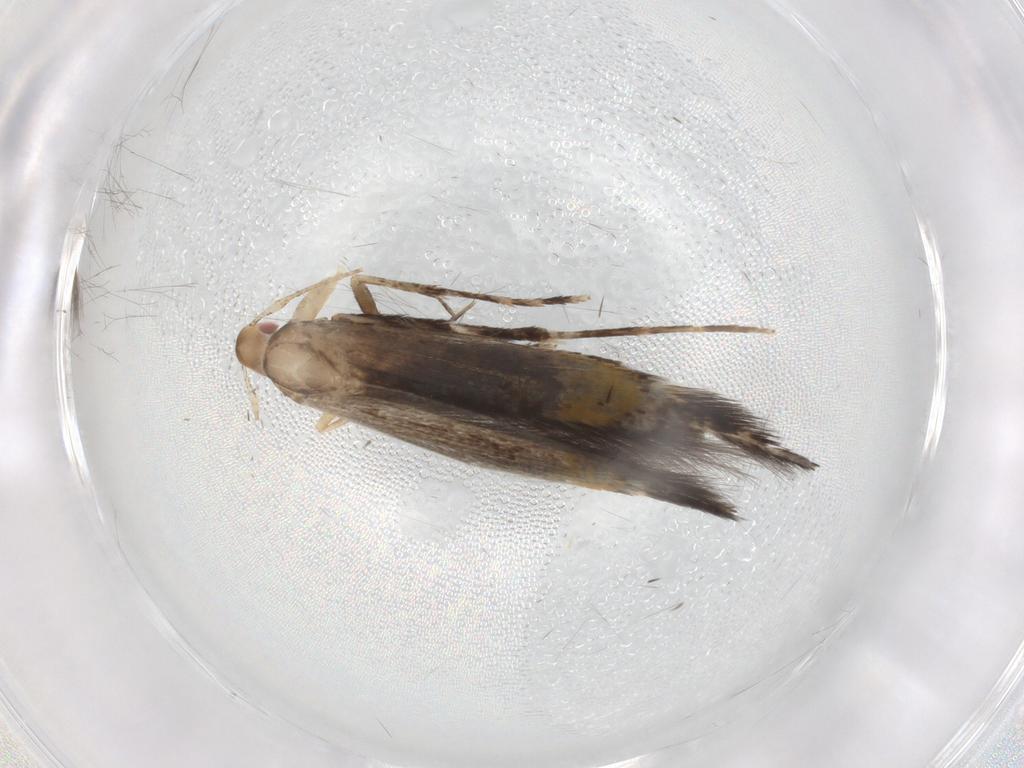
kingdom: Animalia
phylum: Arthropoda
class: Insecta
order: Lepidoptera
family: Cosmopterigidae
